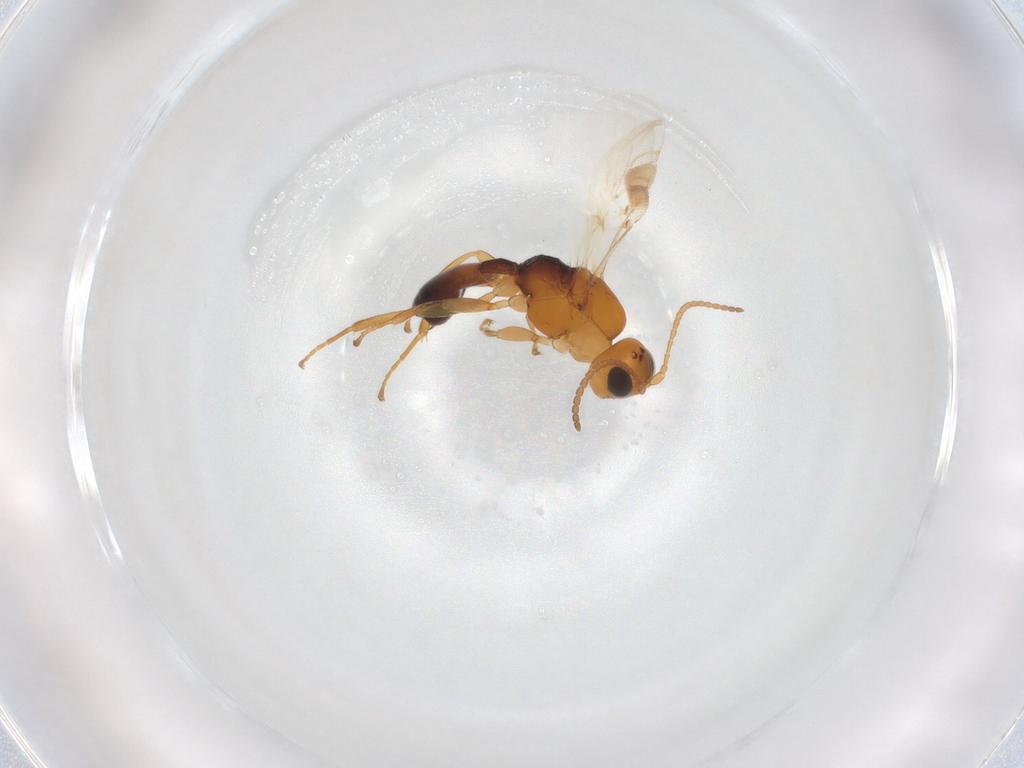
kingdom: Animalia
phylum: Arthropoda
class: Insecta
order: Hymenoptera
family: Braconidae
